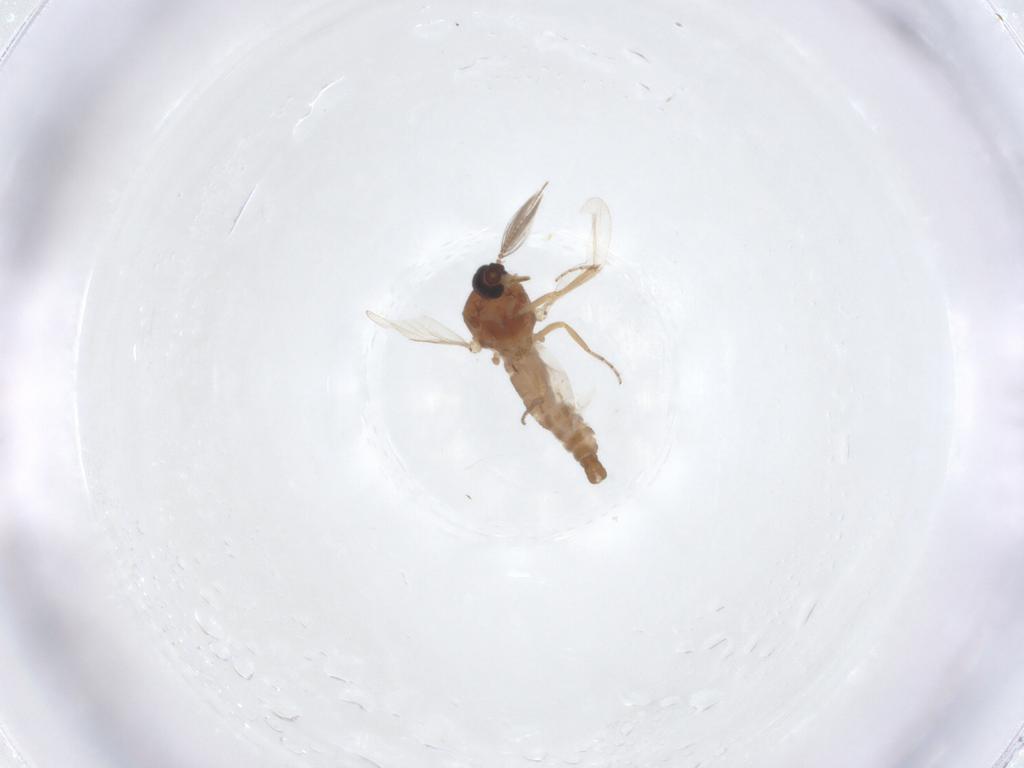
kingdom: Animalia
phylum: Arthropoda
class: Insecta
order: Diptera
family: Ceratopogonidae
